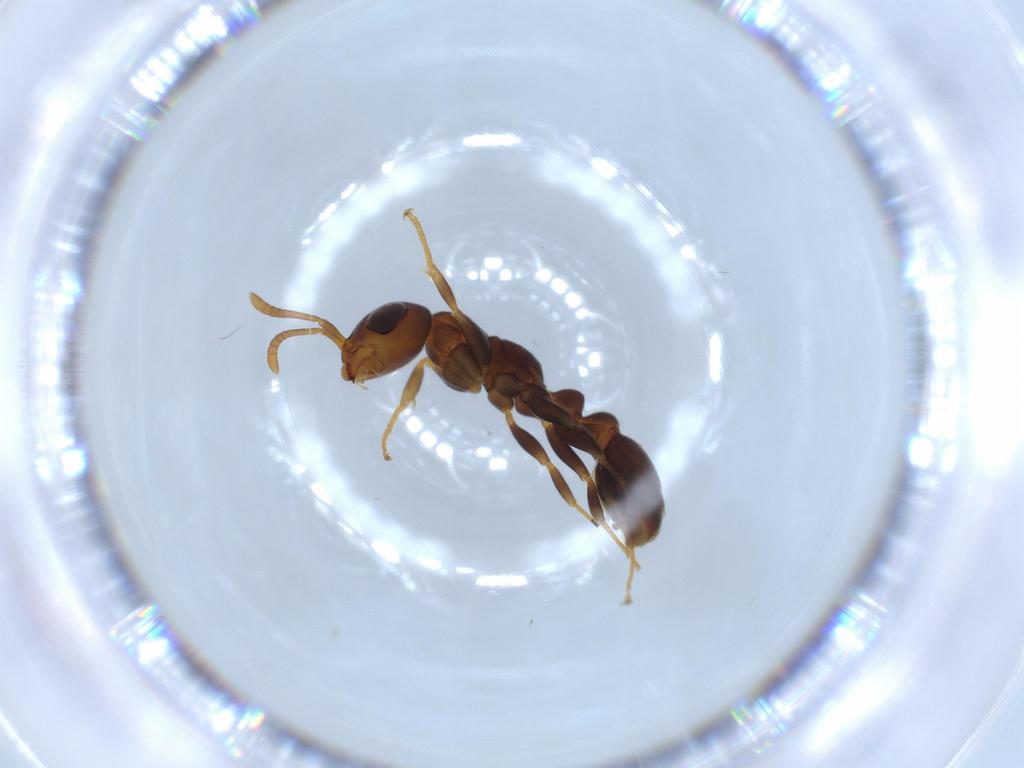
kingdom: Animalia
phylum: Arthropoda
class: Insecta
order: Hymenoptera
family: Formicidae
